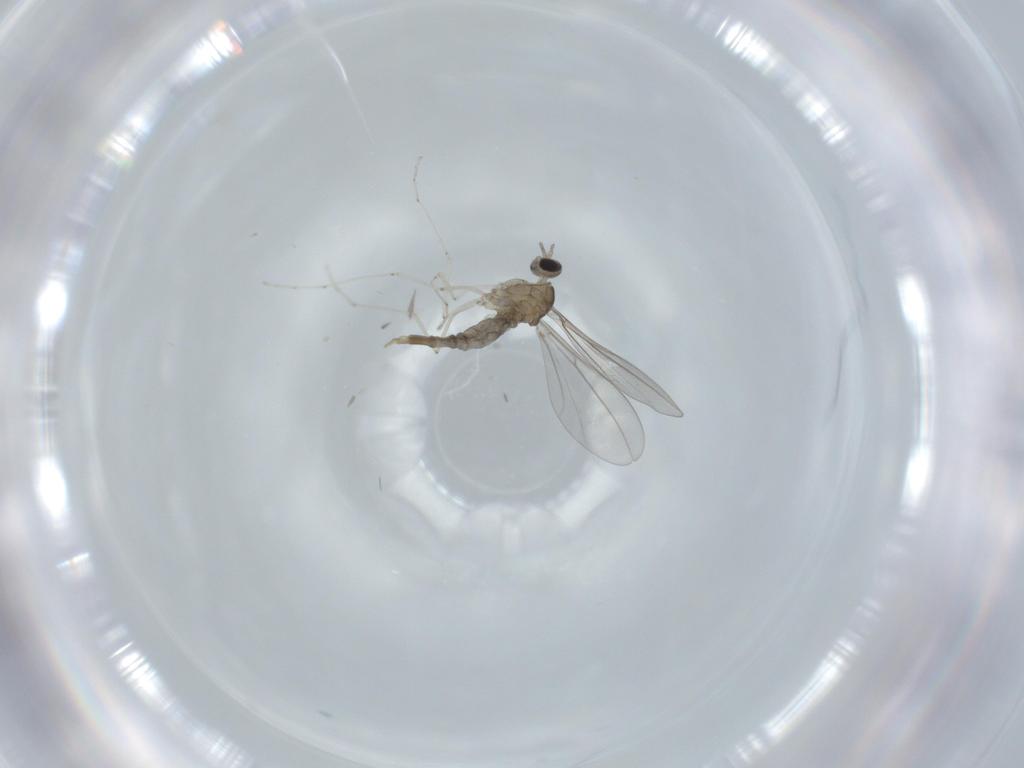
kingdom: Animalia
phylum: Arthropoda
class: Insecta
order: Diptera
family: Cecidomyiidae
